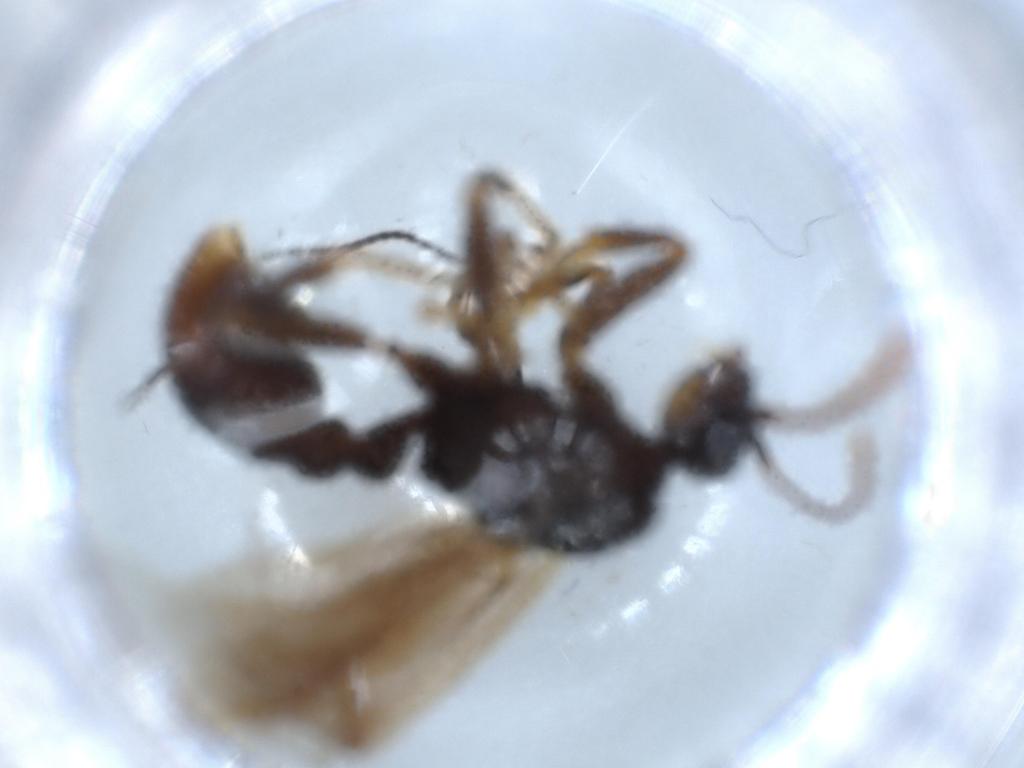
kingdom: Animalia
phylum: Arthropoda
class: Insecta
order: Hymenoptera
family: Formicidae
